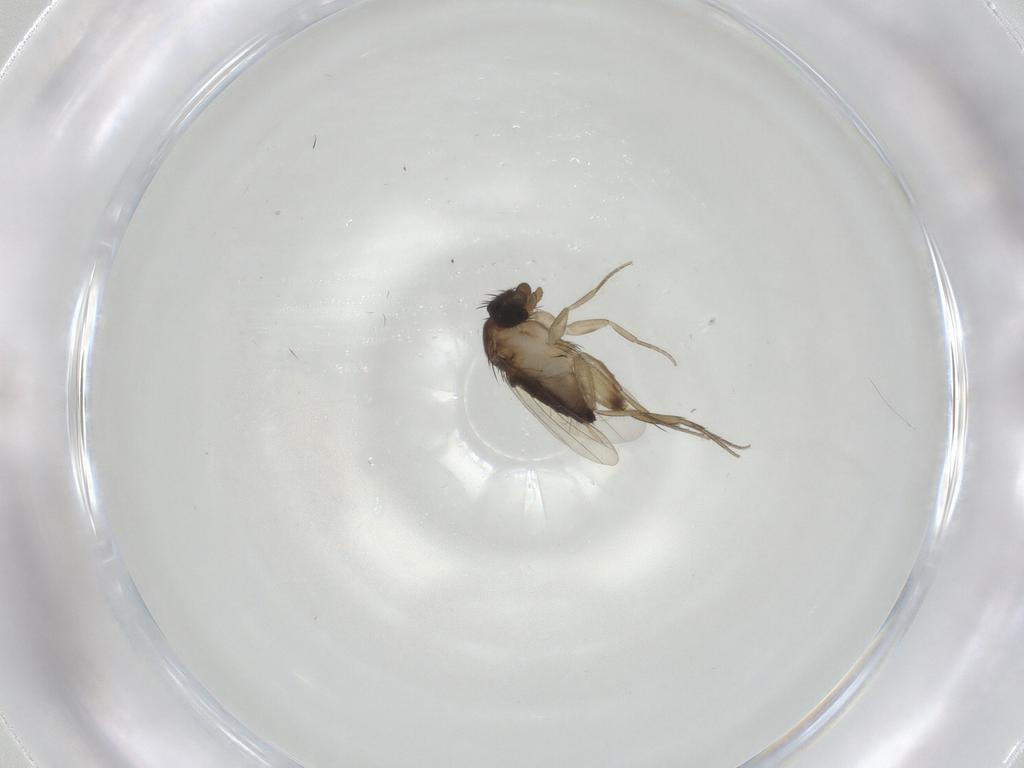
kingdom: Animalia
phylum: Arthropoda
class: Insecta
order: Diptera
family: Phoridae
